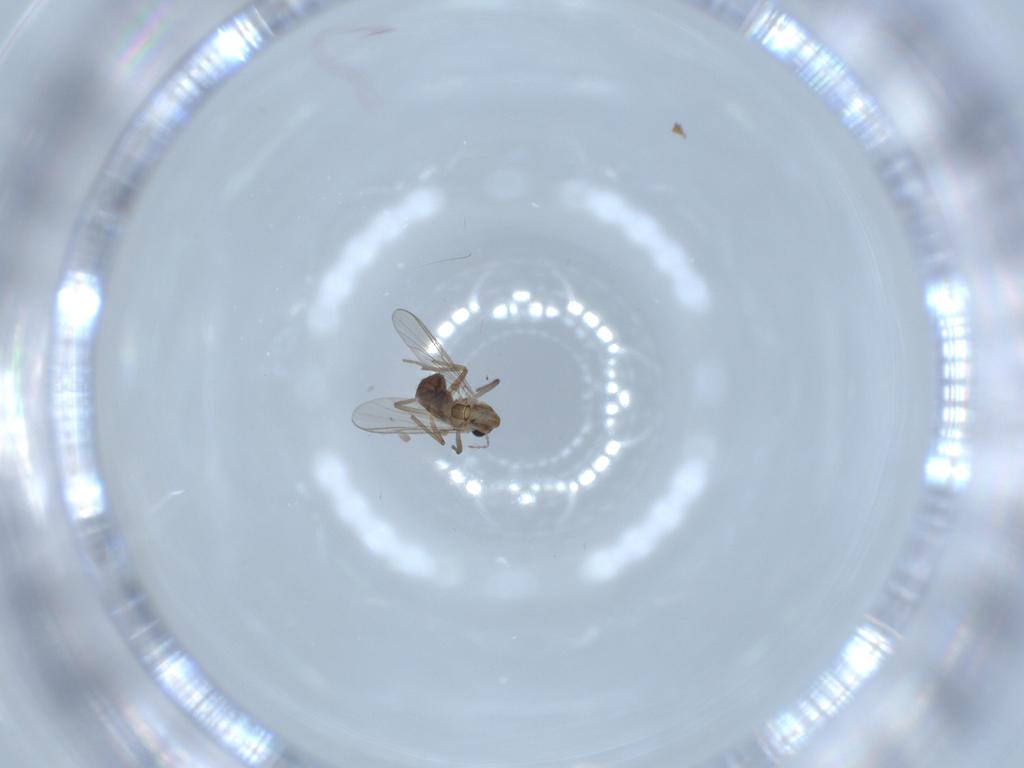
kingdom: Animalia
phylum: Arthropoda
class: Insecta
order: Diptera
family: Chironomidae
